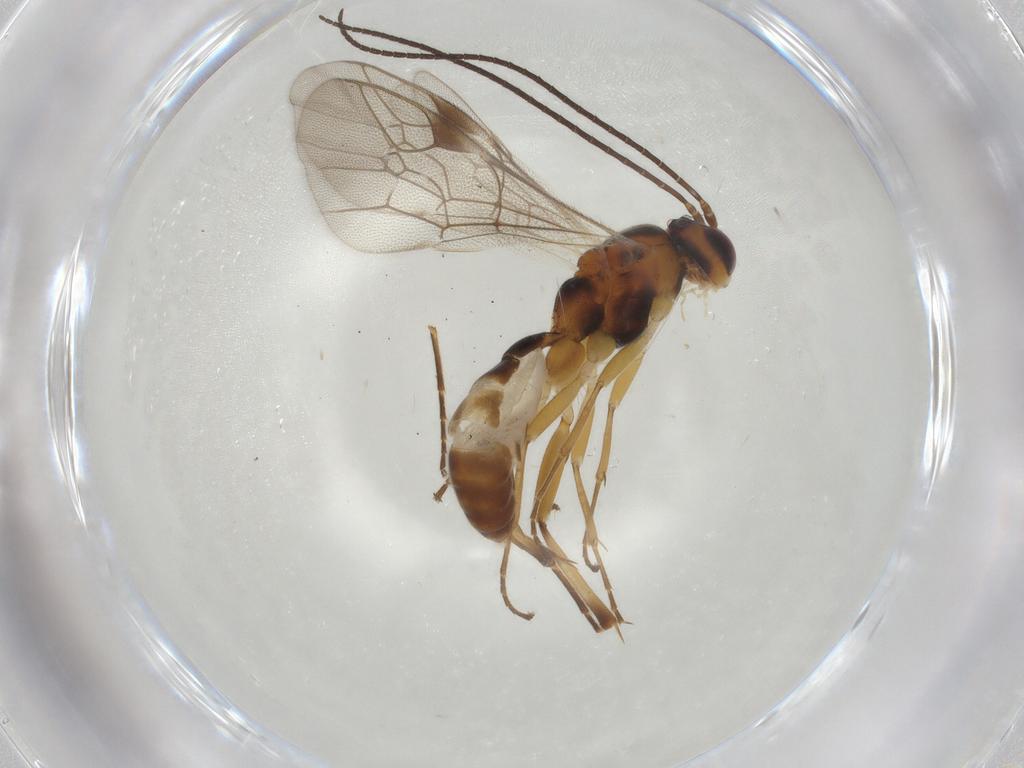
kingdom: Animalia
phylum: Arthropoda
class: Insecta
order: Hymenoptera
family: Ichneumonidae
